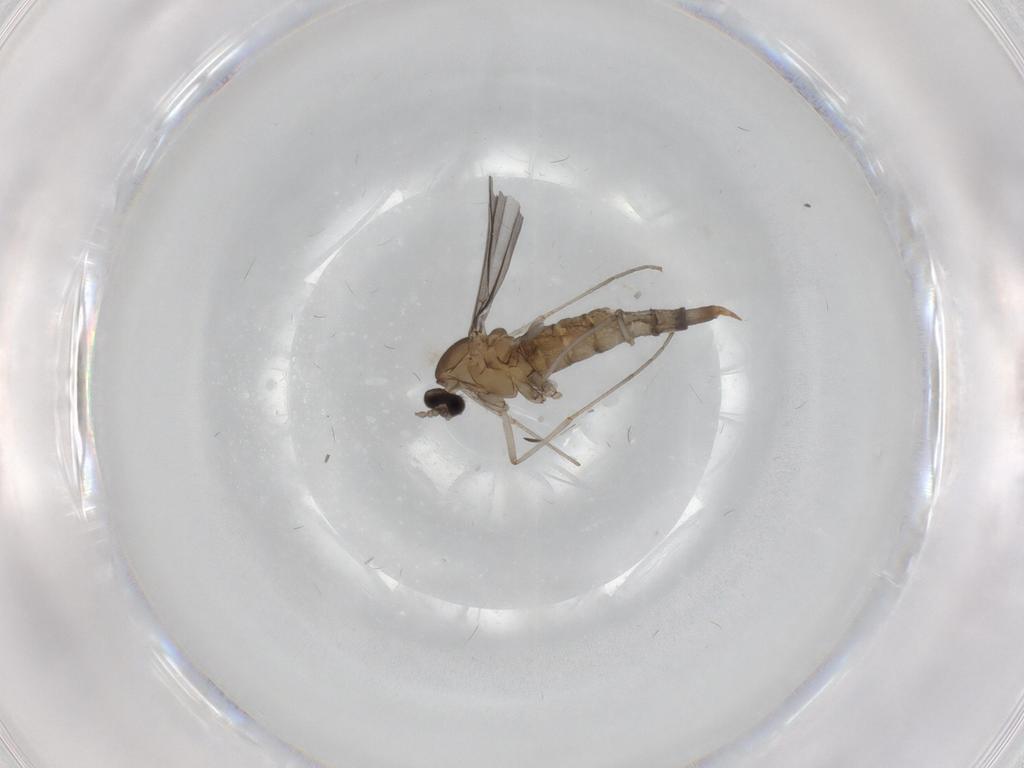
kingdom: Animalia
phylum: Arthropoda
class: Insecta
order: Diptera
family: Cecidomyiidae
